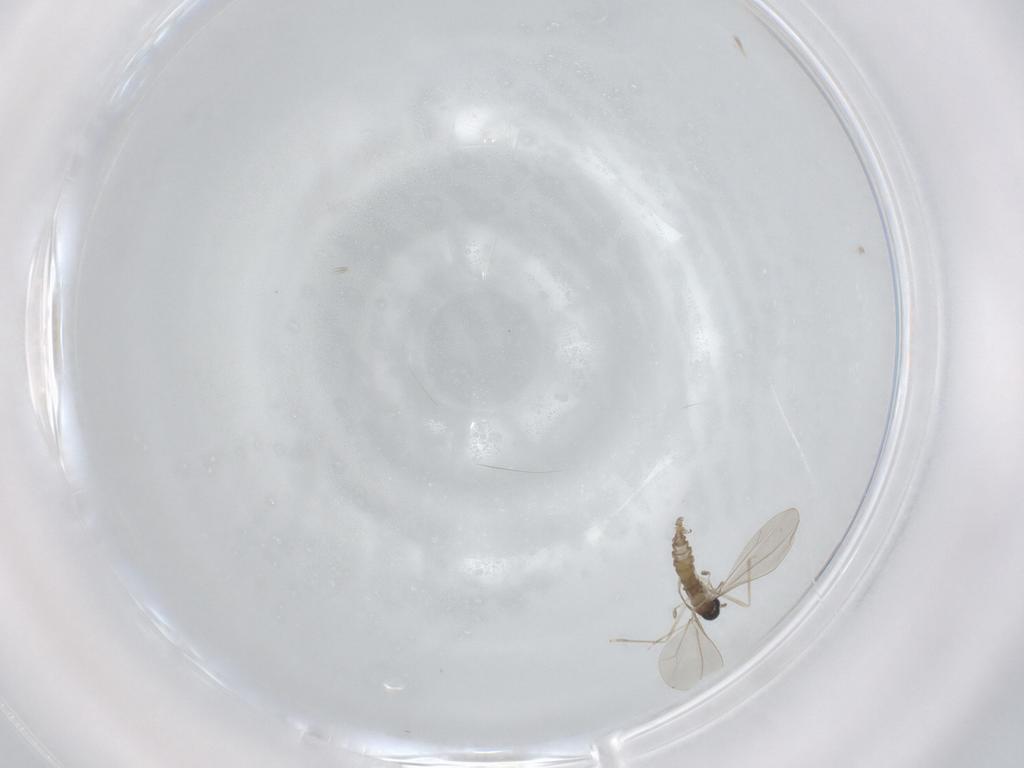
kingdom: Animalia
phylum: Arthropoda
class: Insecta
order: Diptera
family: Cecidomyiidae
